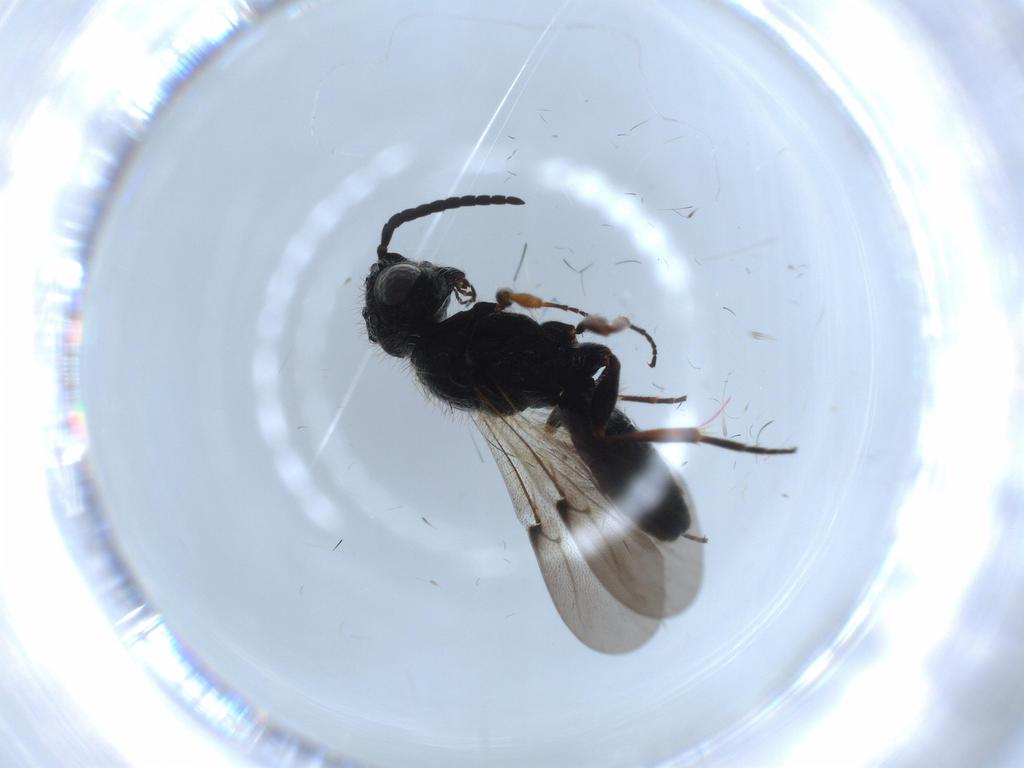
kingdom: Animalia
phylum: Arthropoda
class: Insecta
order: Hymenoptera
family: Scelionidae
